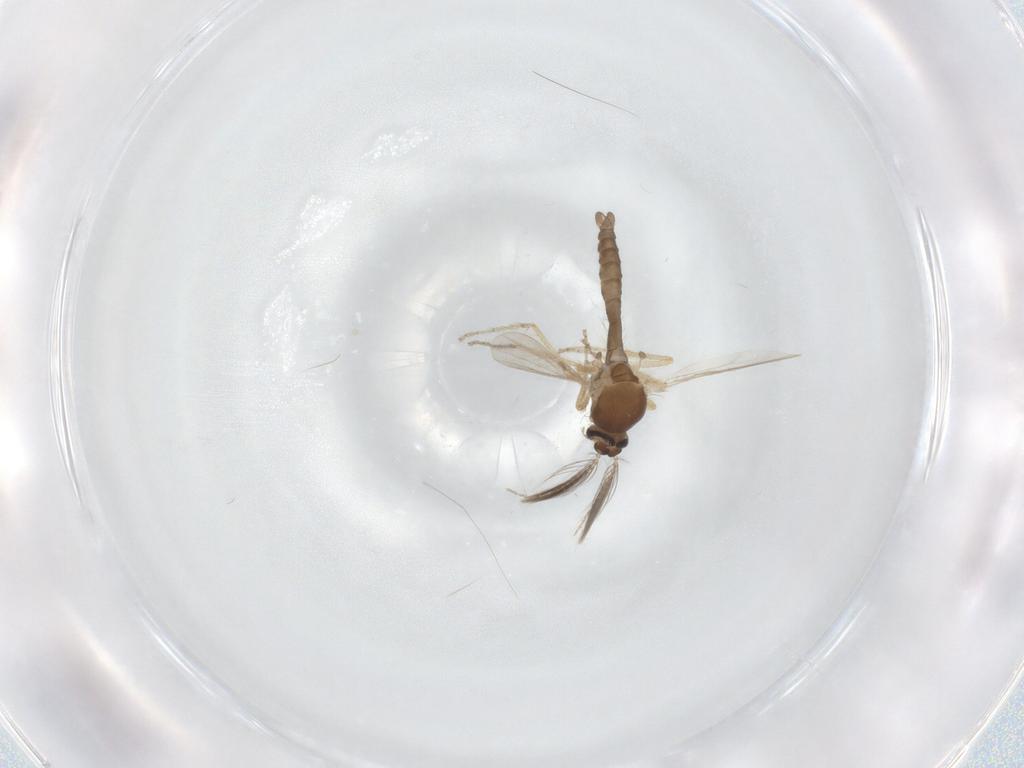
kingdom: Animalia
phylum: Arthropoda
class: Insecta
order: Diptera
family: Ceratopogonidae
